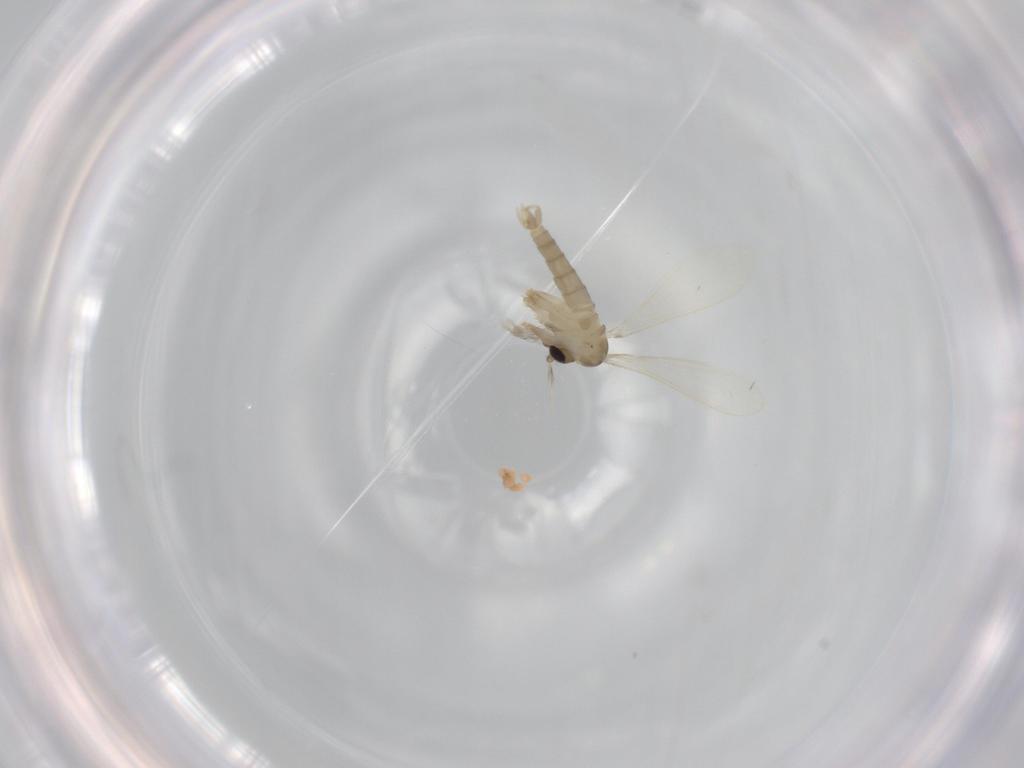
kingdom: Animalia
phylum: Arthropoda
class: Insecta
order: Diptera
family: Psychodidae
